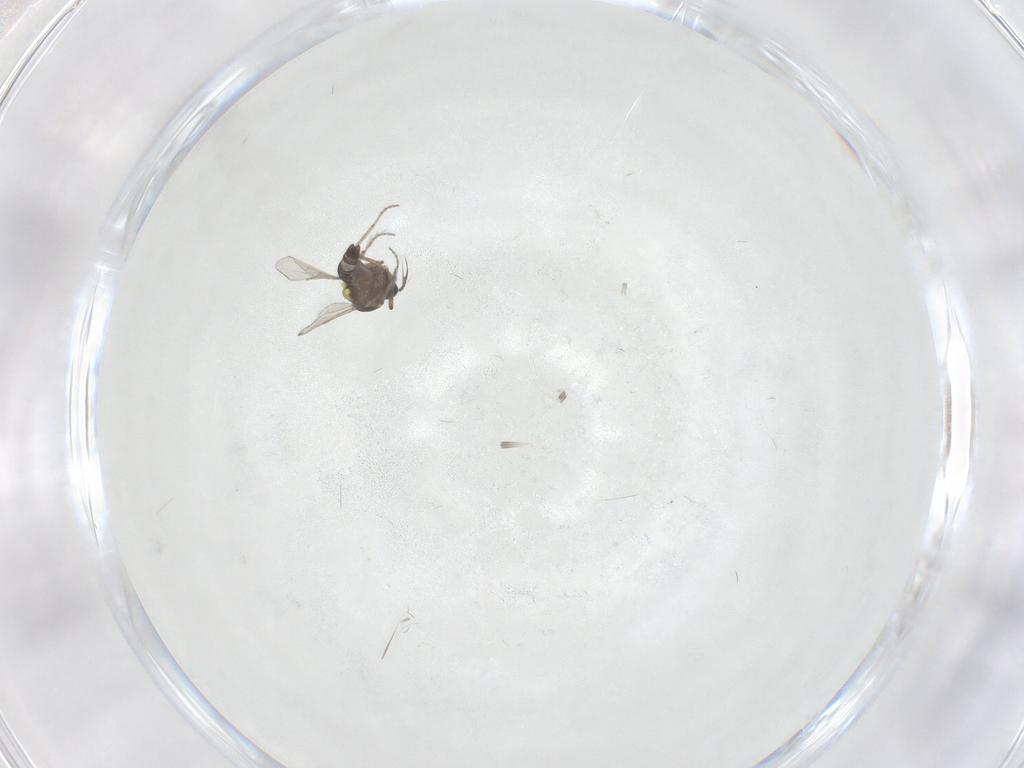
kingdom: Animalia
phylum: Arthropoda
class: Insecta
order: Diptera
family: Ceratopogonidae
